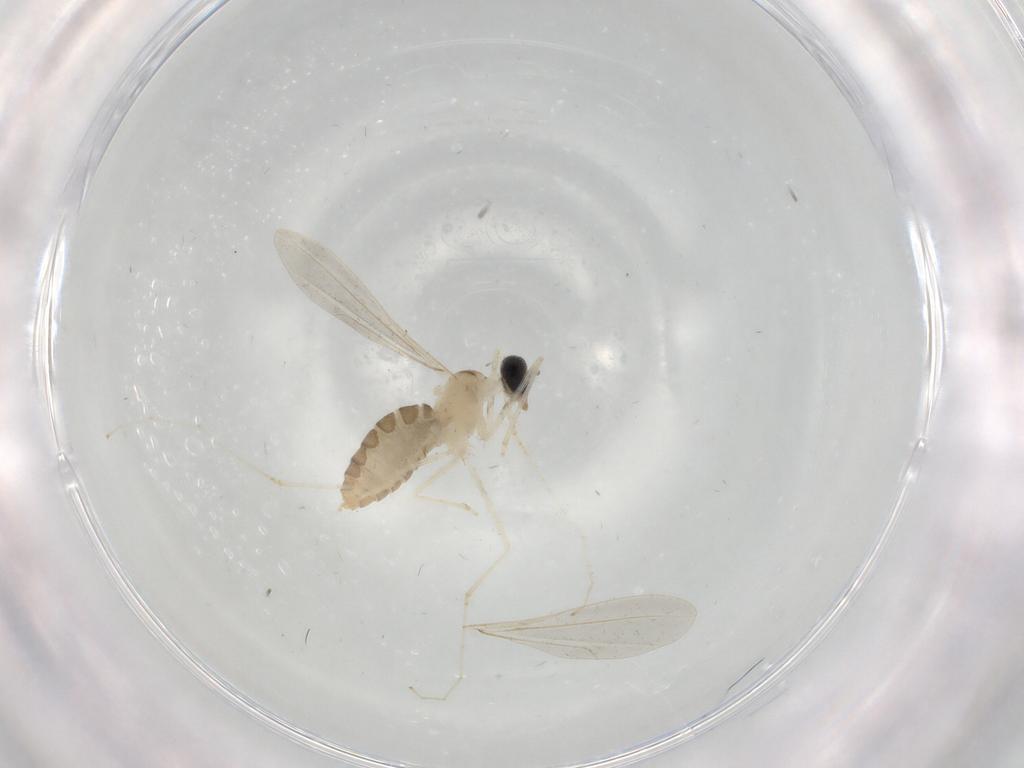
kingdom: Animalia
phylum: Arthropoda
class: Insecta
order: Diptera
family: Cecidomyiidae
